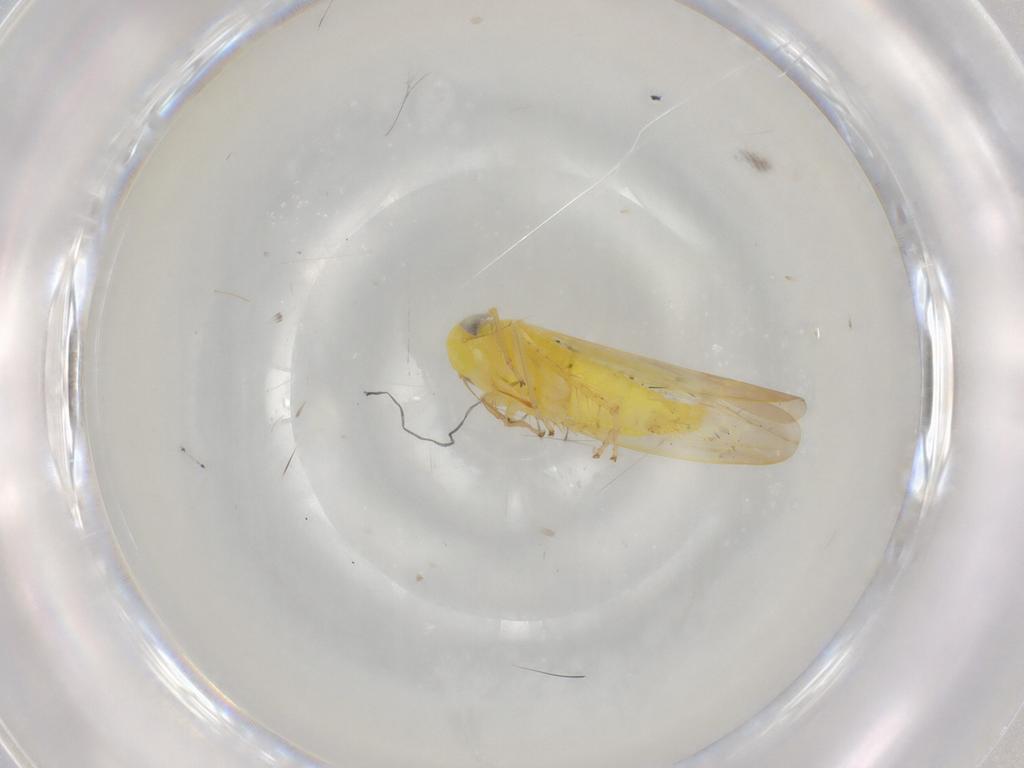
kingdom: Animalia
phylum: Arthropoda
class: Insecta
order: Hemiptera
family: Cicadellidae
